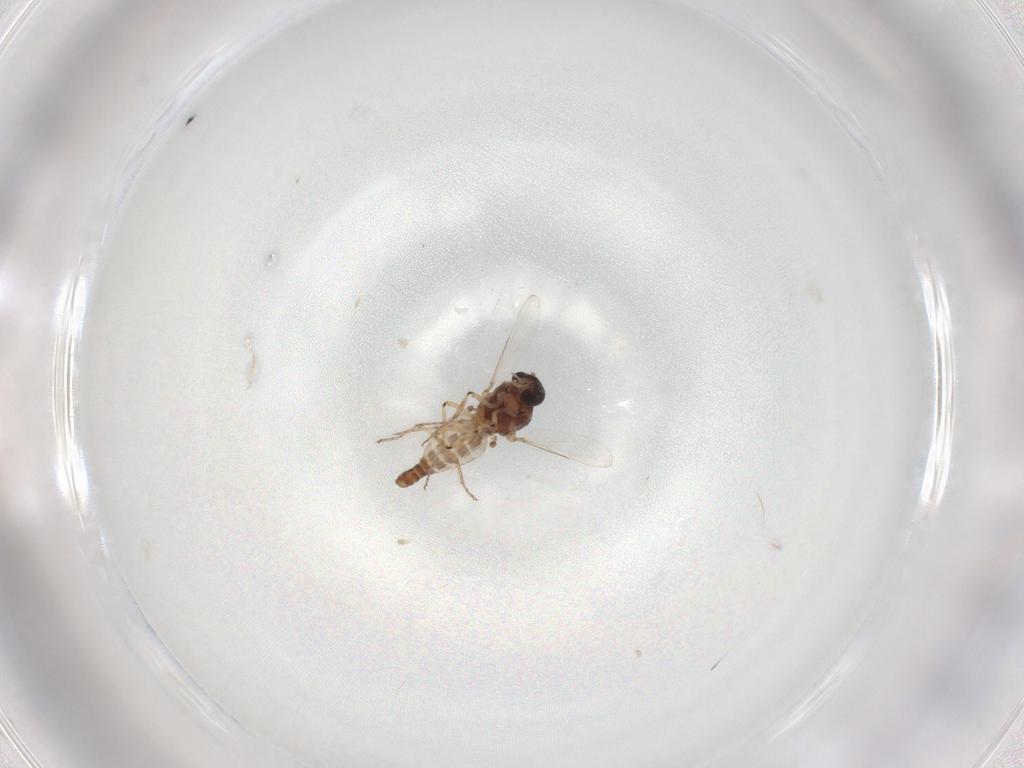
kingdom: Animalia
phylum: Arthropoda
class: Insecta
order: Diptera
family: Ceratopogonidae
